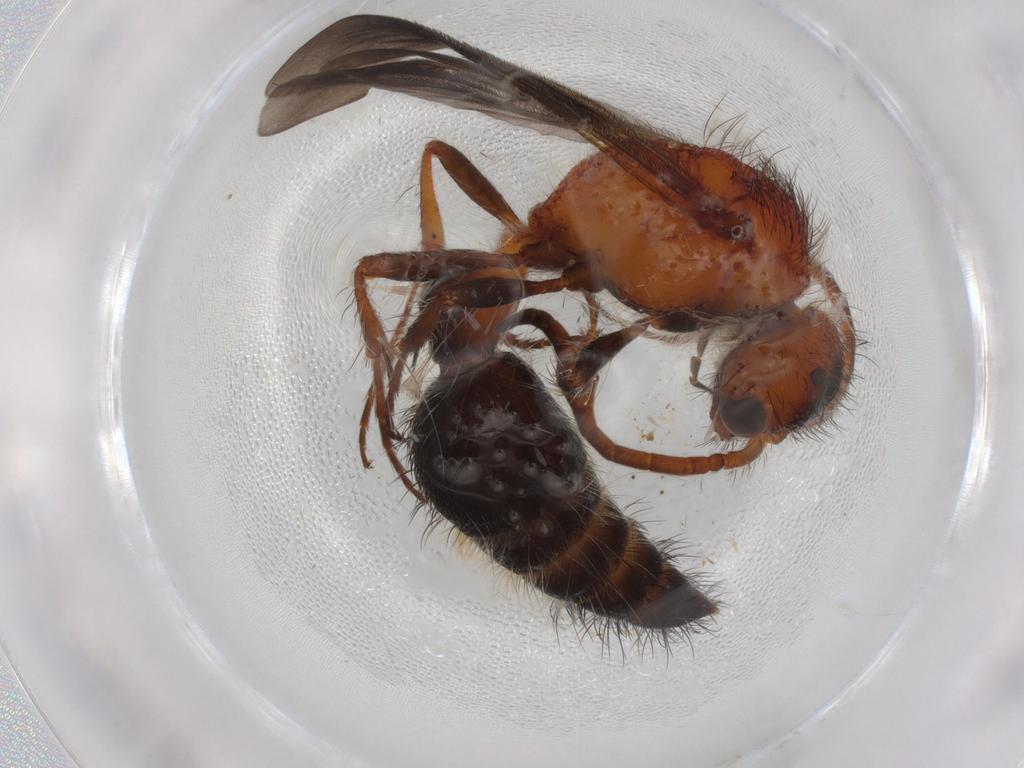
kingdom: Animalia
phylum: Arthropoda
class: Insecta
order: Hymenoptera
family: Mutillidae
